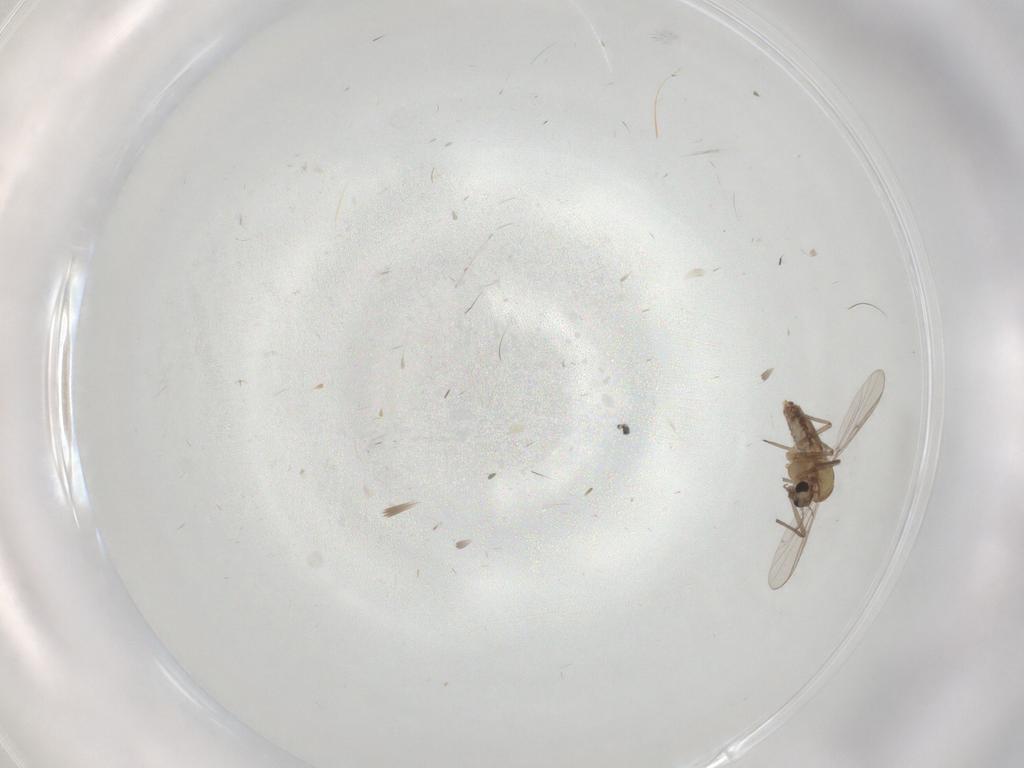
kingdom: Animalia
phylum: Arthropoda
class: Insecta
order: Diptera
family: Chironomidae
